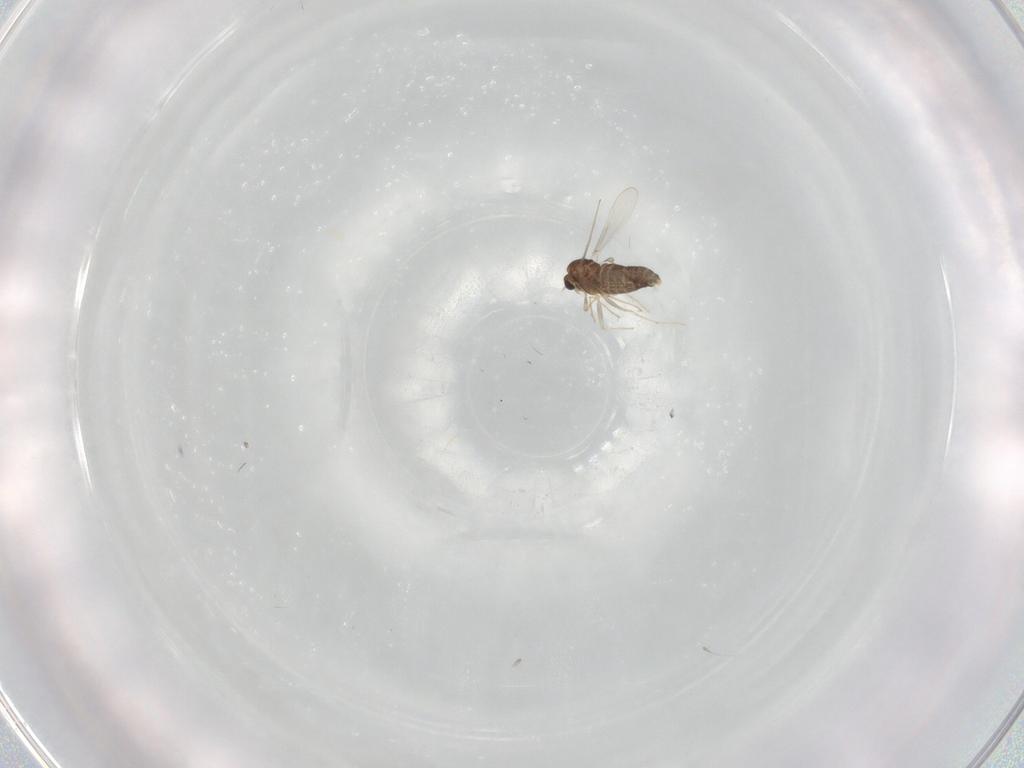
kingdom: Animalia
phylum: Arthropoda
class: Insecta
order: Diptera
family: Chironomidae
